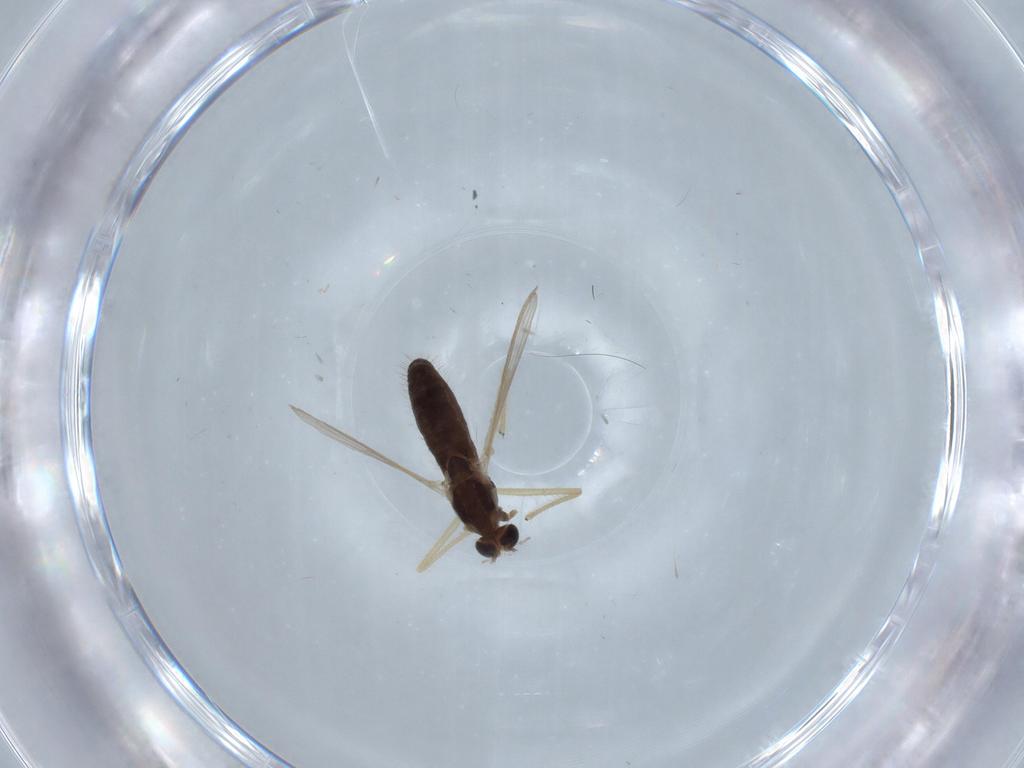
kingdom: Animalia
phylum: Arthropoda
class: Insecta
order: Diptera
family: Chironomidae
